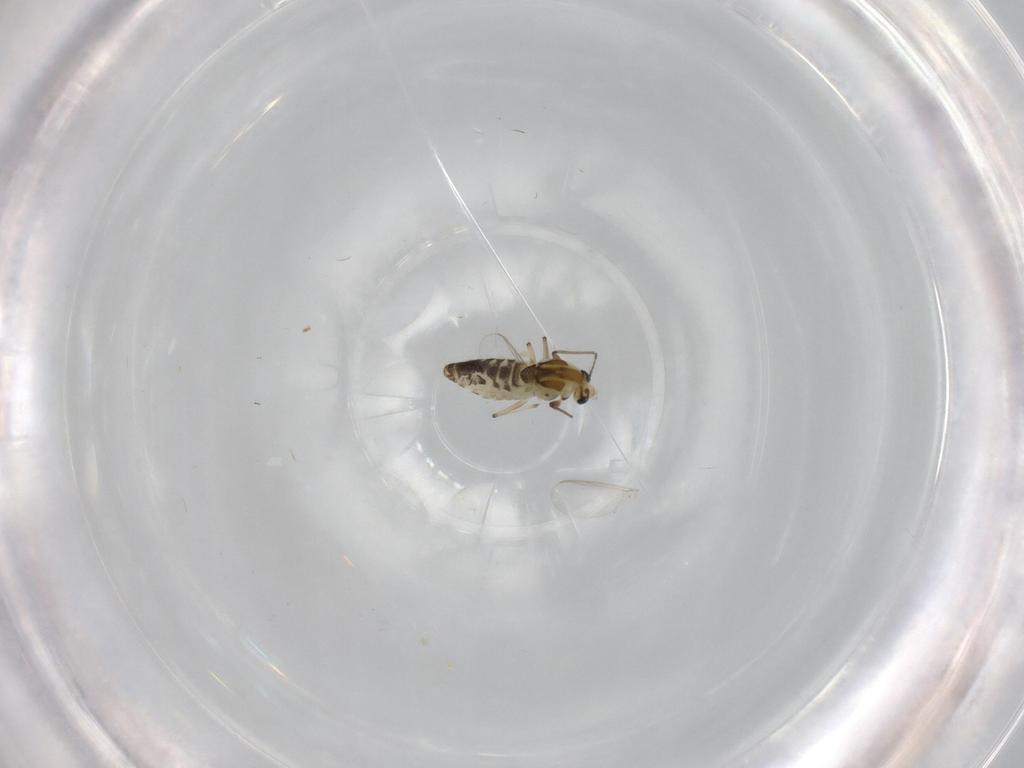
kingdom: Animalia
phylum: Arthropoda
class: Insecta
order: Diptera
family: Chironomidae
